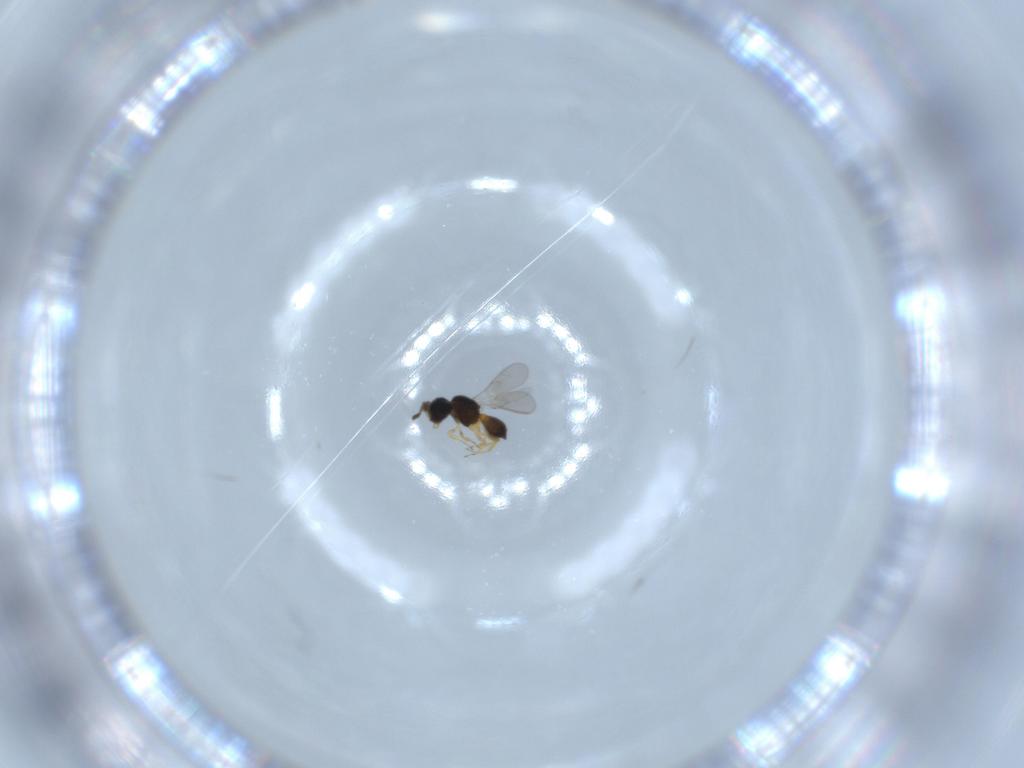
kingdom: Animalia
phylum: Arthropoda
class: Insecta
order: Hymenoptera
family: Scelionidae
